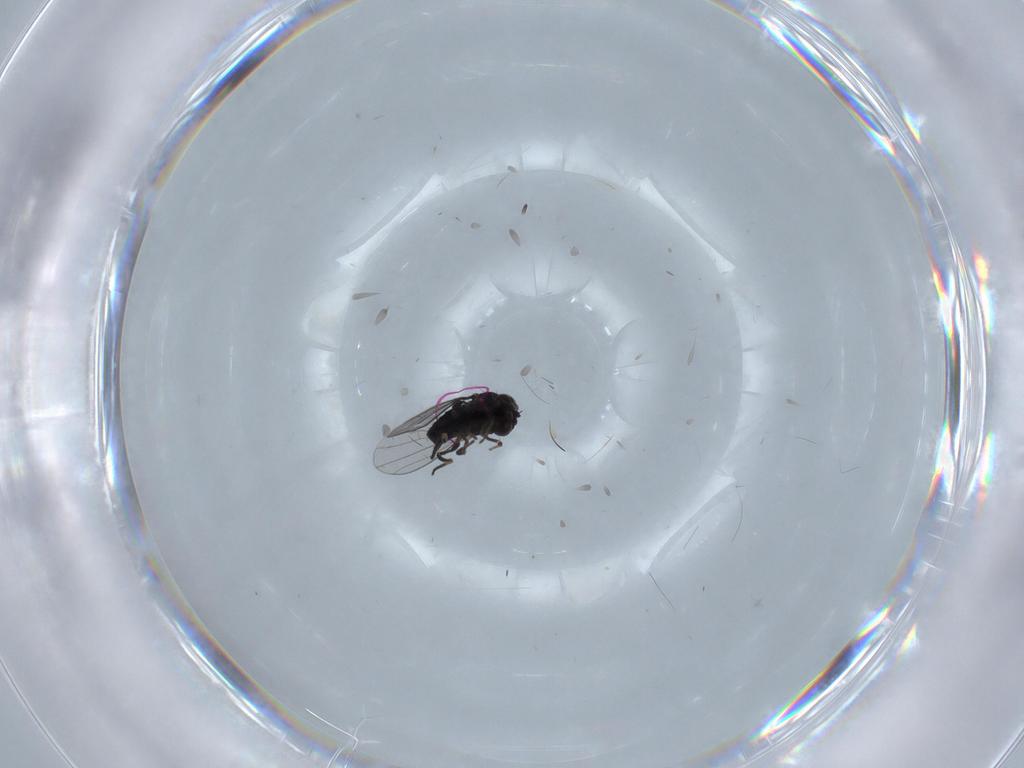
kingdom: Animalia
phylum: Arthropoda
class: Insecta
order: Diptera
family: Dolichopodidae
